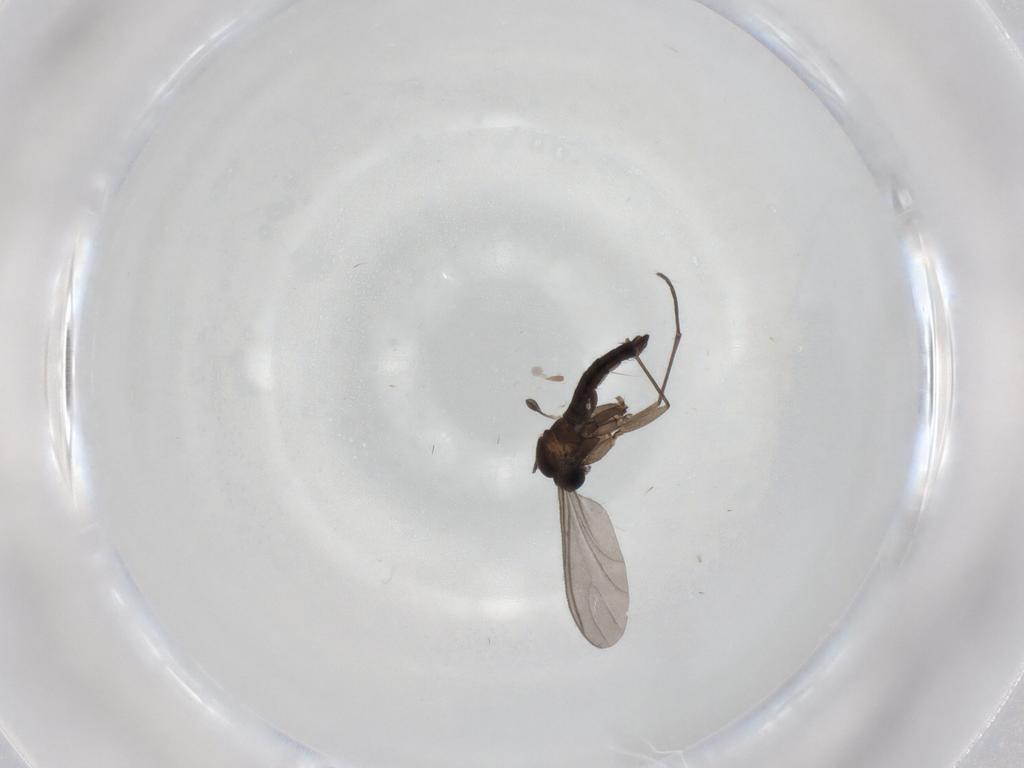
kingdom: Animalia
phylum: Arthropoda
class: Insecta
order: Diptera
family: Sciaridae
